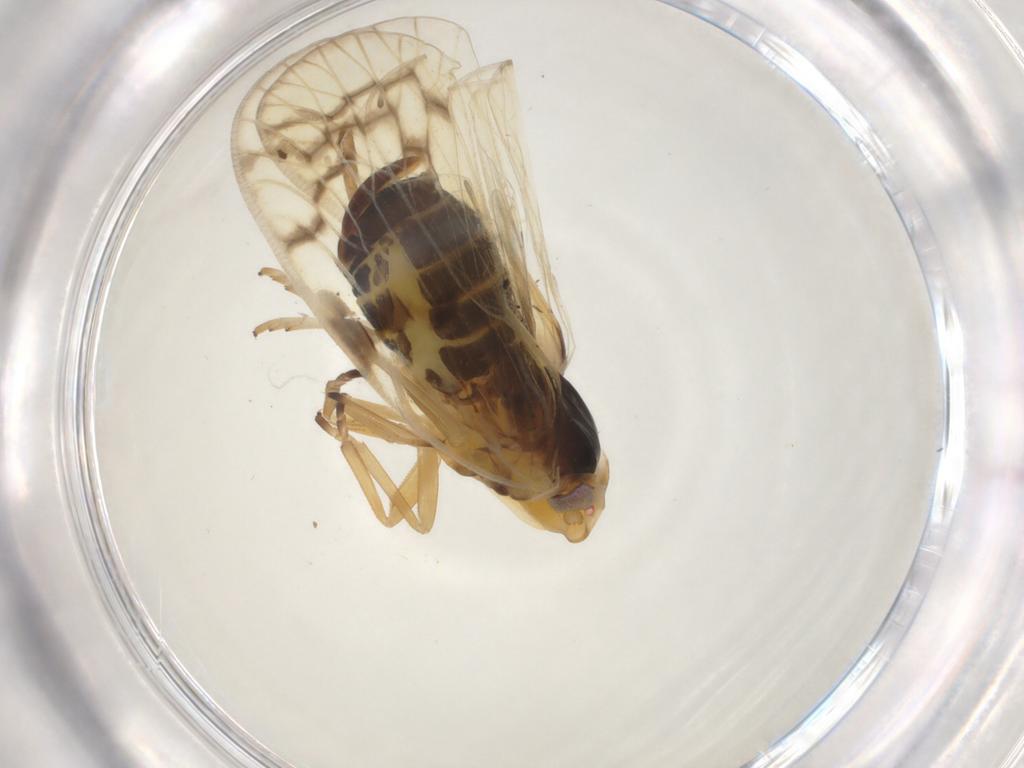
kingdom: Animalia
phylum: Arthropoda
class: Insecta
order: Hemiptera
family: Cixiidae
